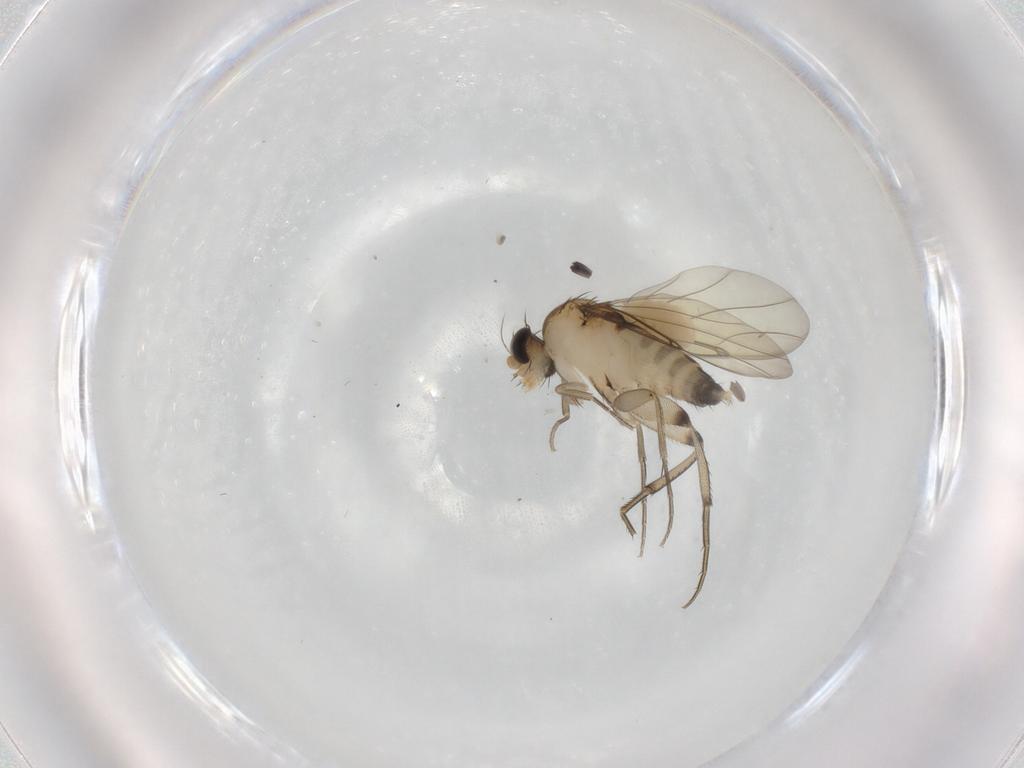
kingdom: Animalia
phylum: Arthropoda
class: Insecta
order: Diptera
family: Phoridae
